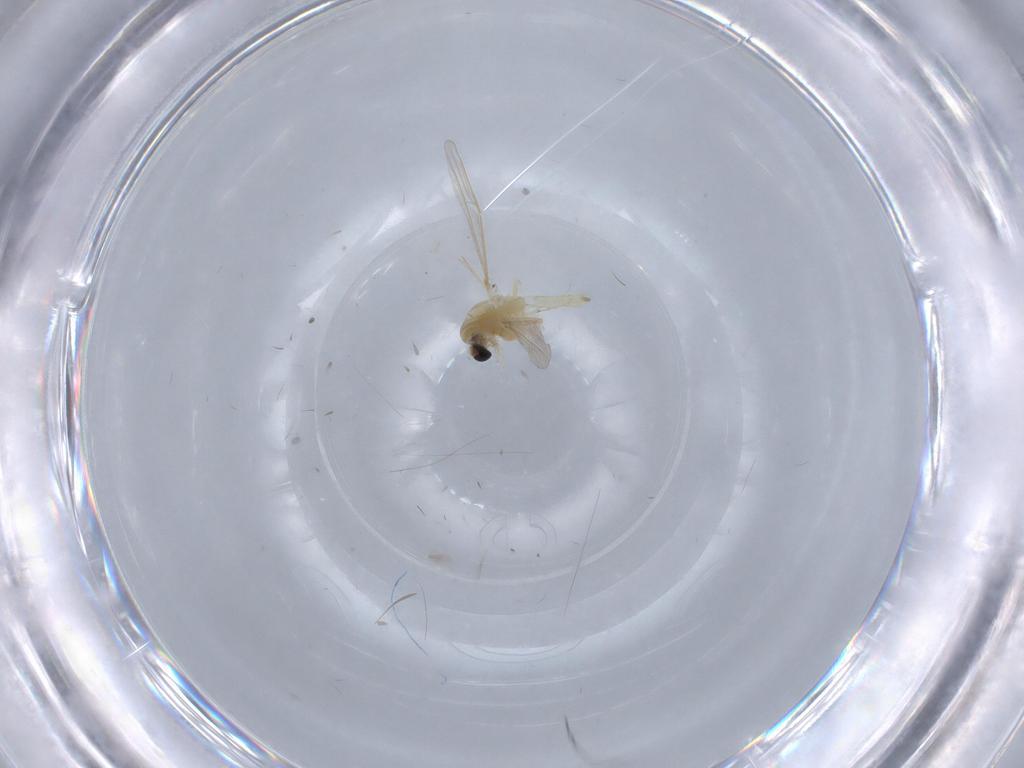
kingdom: Animalia
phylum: Arthropoda
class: Insecta
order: Diptera
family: Chironomidae
